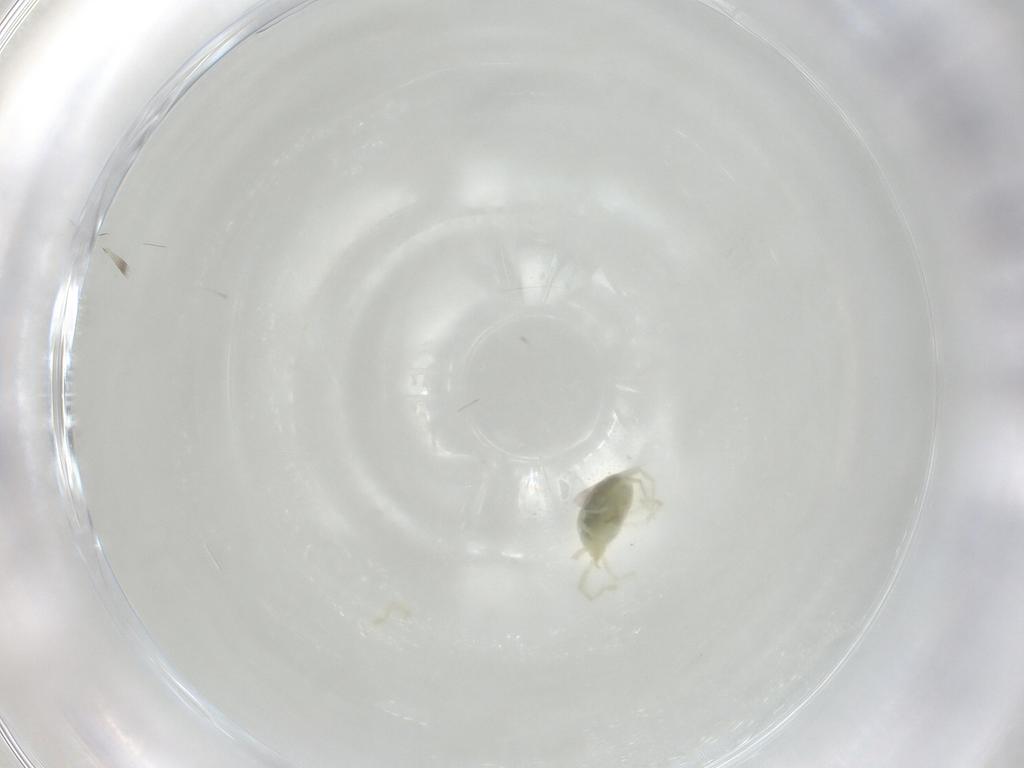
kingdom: Animalia
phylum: Arthropoda
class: Arachnida
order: Trombidiformes
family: Erythraeidae
